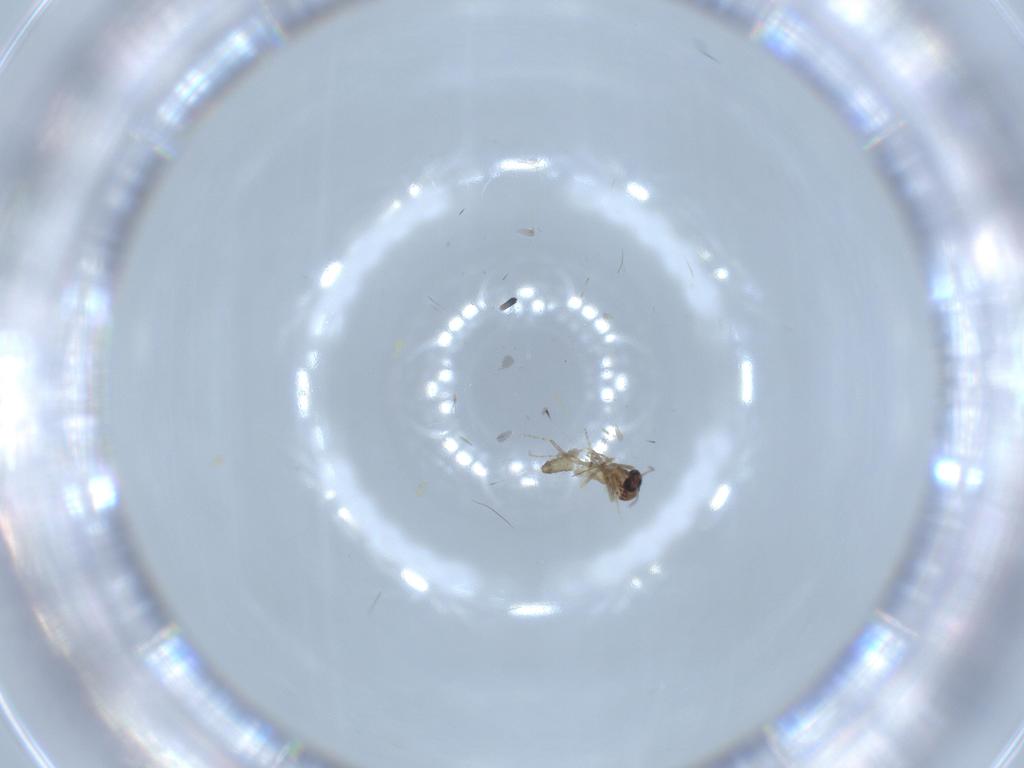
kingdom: Animalia
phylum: Arthropoda
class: Insecta
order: Diptera
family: Ceratopogonidae
